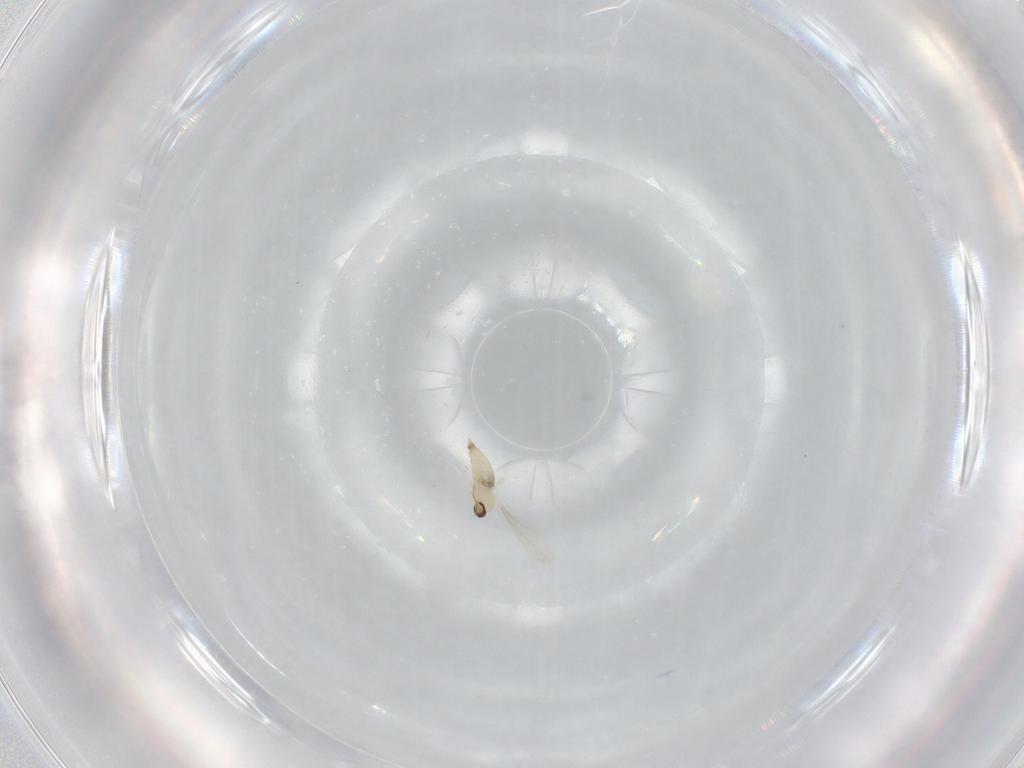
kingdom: Animalia
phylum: Arthropoda
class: Insecta
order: Diptera
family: Cecidomyiidae
